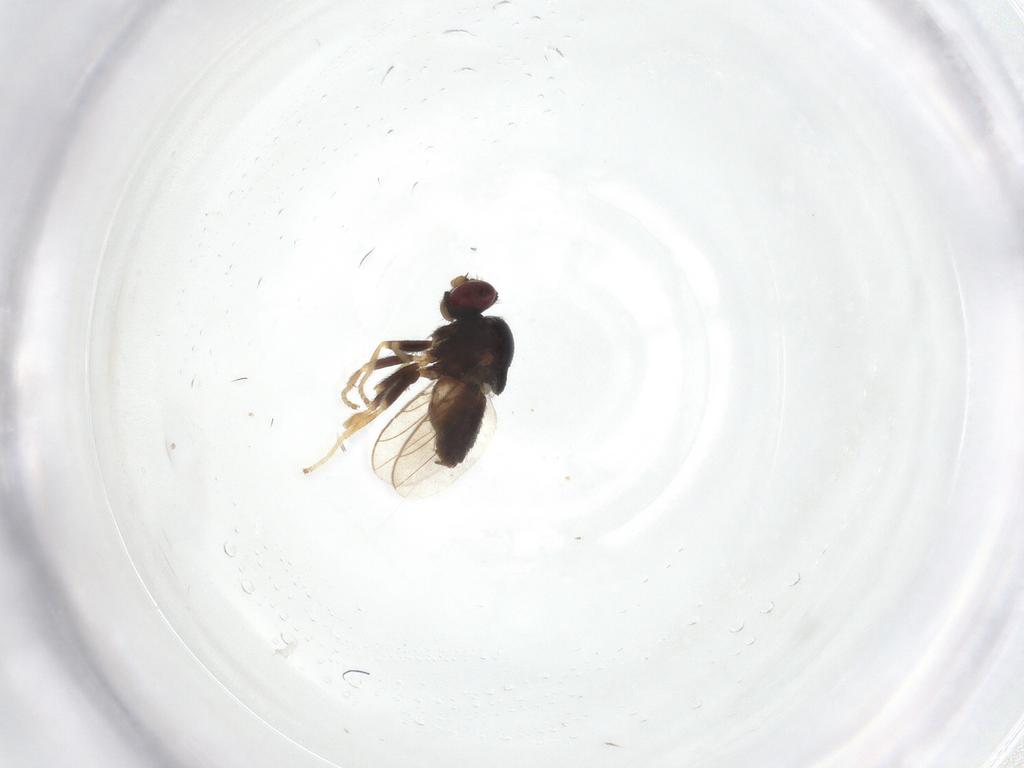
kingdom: Animalia
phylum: Arthropoda
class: Insecta
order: Diptera
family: Chloropidae
